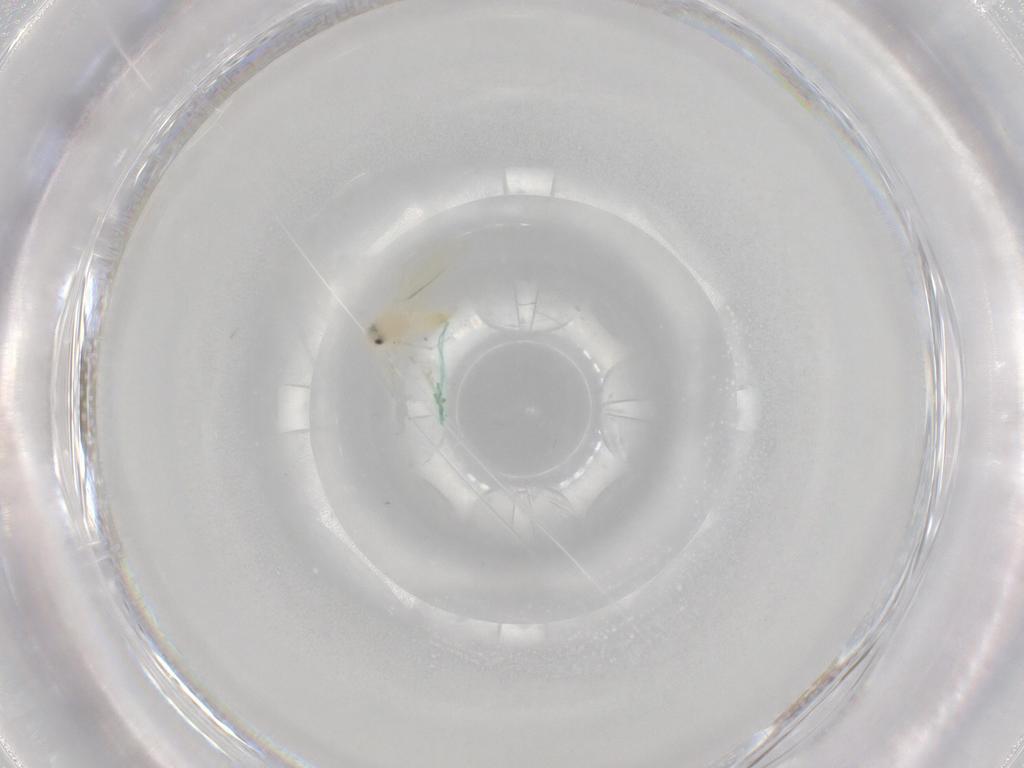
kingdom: Animalia
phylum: Arthropoda
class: Insecta
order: Hemiptera
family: Aleyrodidae
